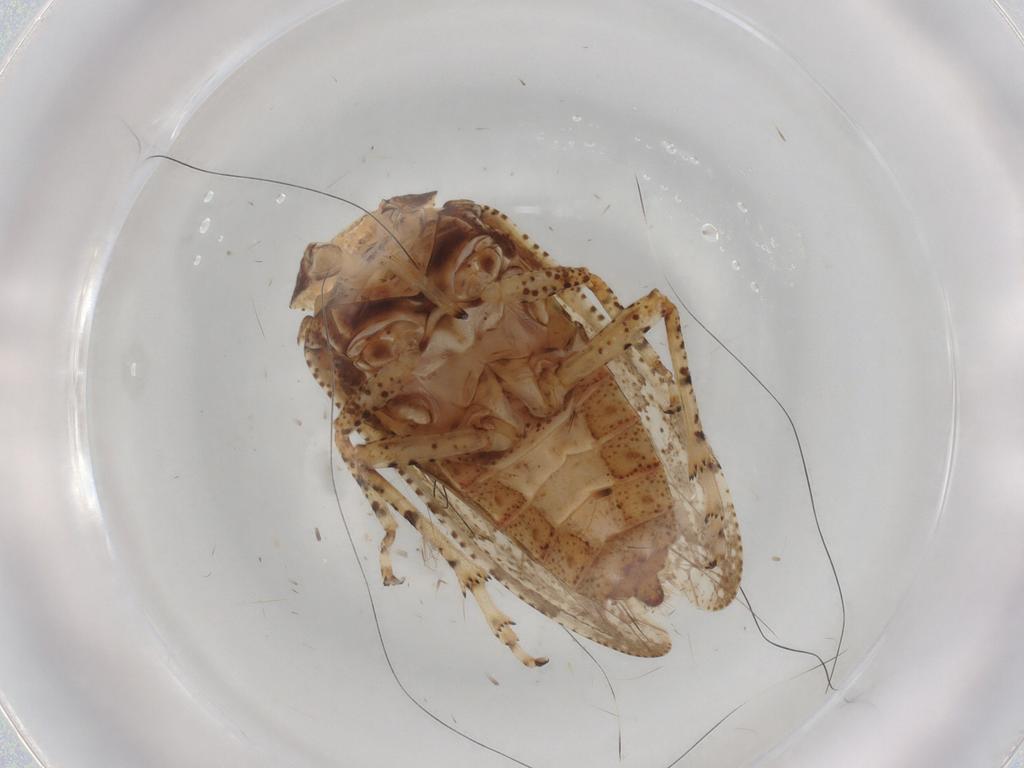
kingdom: Animalia
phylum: Arthropoda
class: Insecta
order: Hemiptera
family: Tettigometridae
